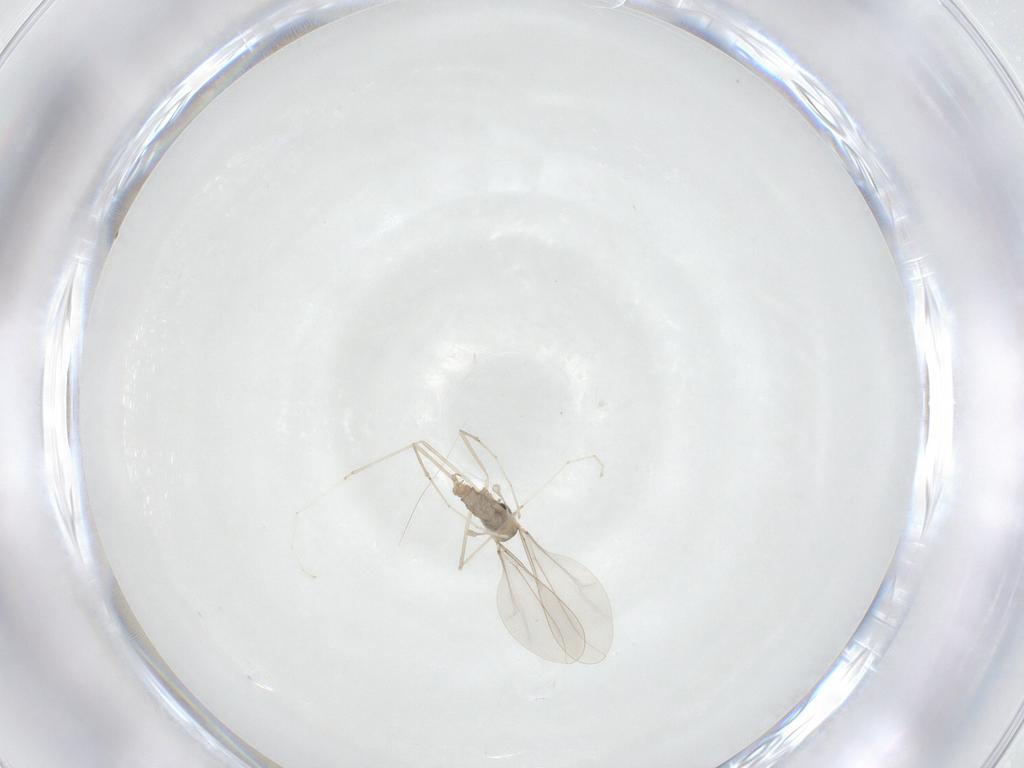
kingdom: Animalia
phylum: Arthropoda
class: Insecta
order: Diptera
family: Cecidomyiidae
